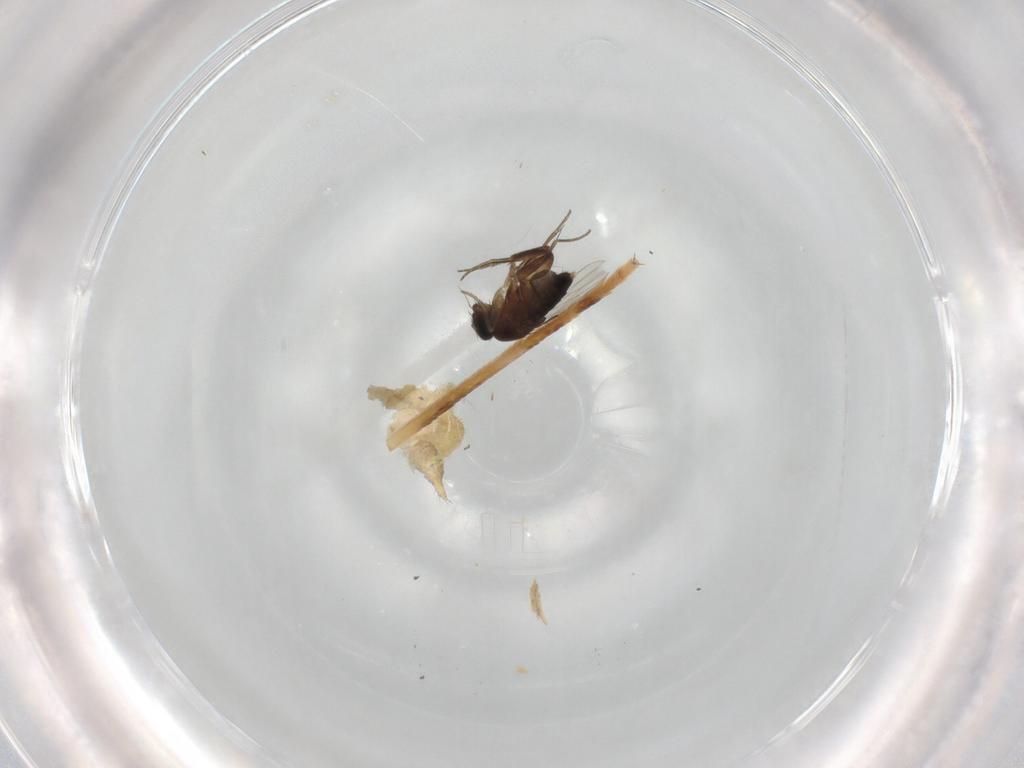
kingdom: Animalia
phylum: Arthropoda
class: Insecta
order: Diptera
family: Phoridae
